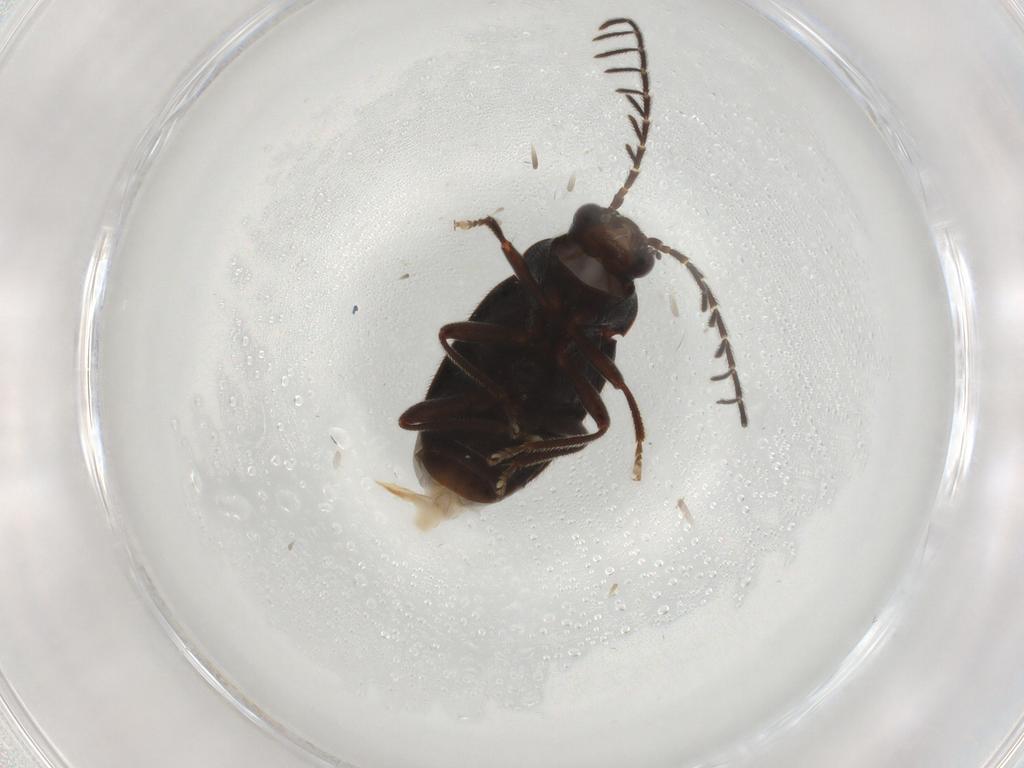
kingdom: Animalia
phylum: Arthropoda
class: Insecta
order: Coleoptera
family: Ptilodactylidae
